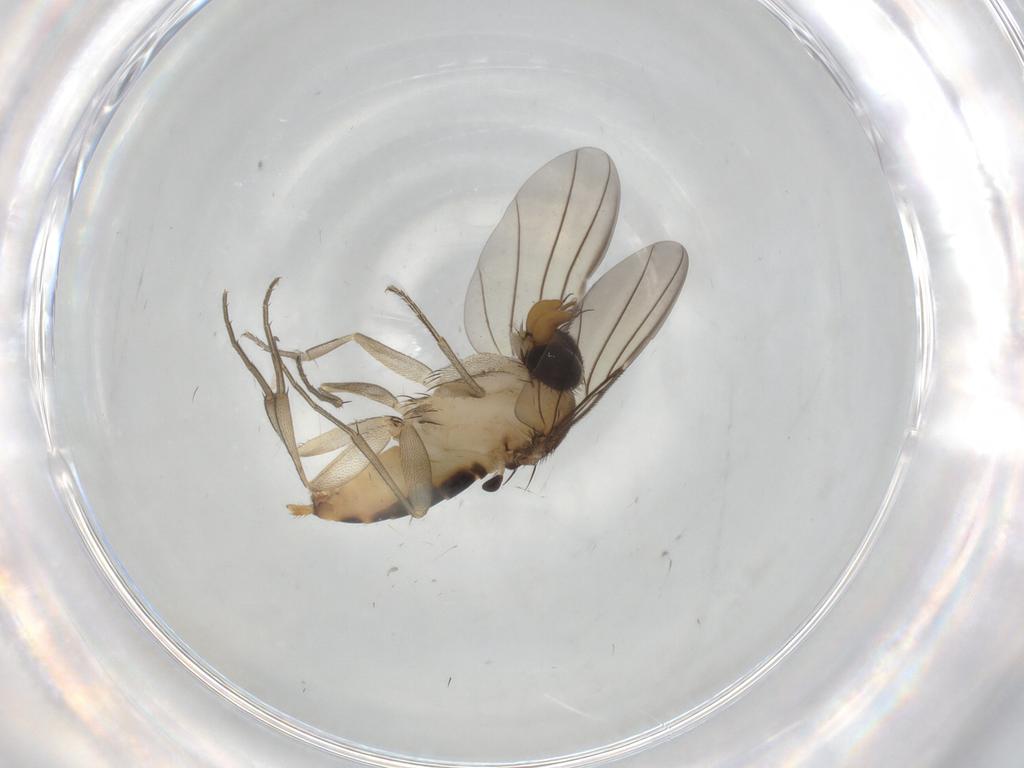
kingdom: Animalia
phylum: Arthropoda
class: Insecta
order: Diptera
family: Phoridae
